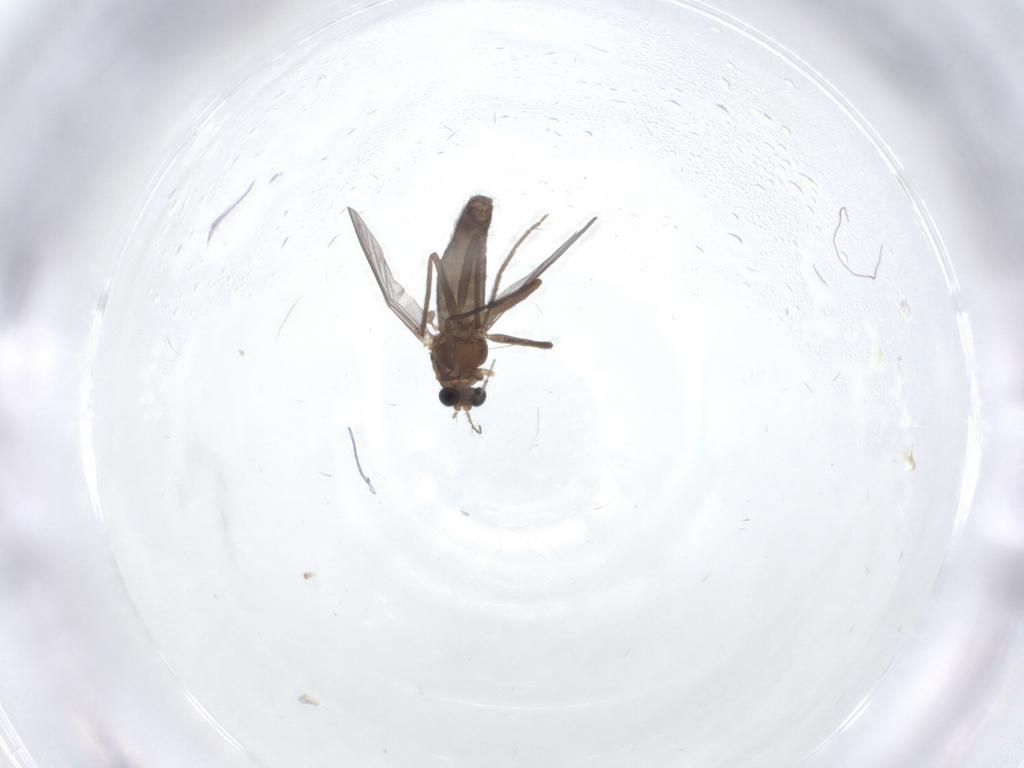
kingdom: Animalia
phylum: Arthropoda
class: Insecta
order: Diptera
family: Chironomidae
